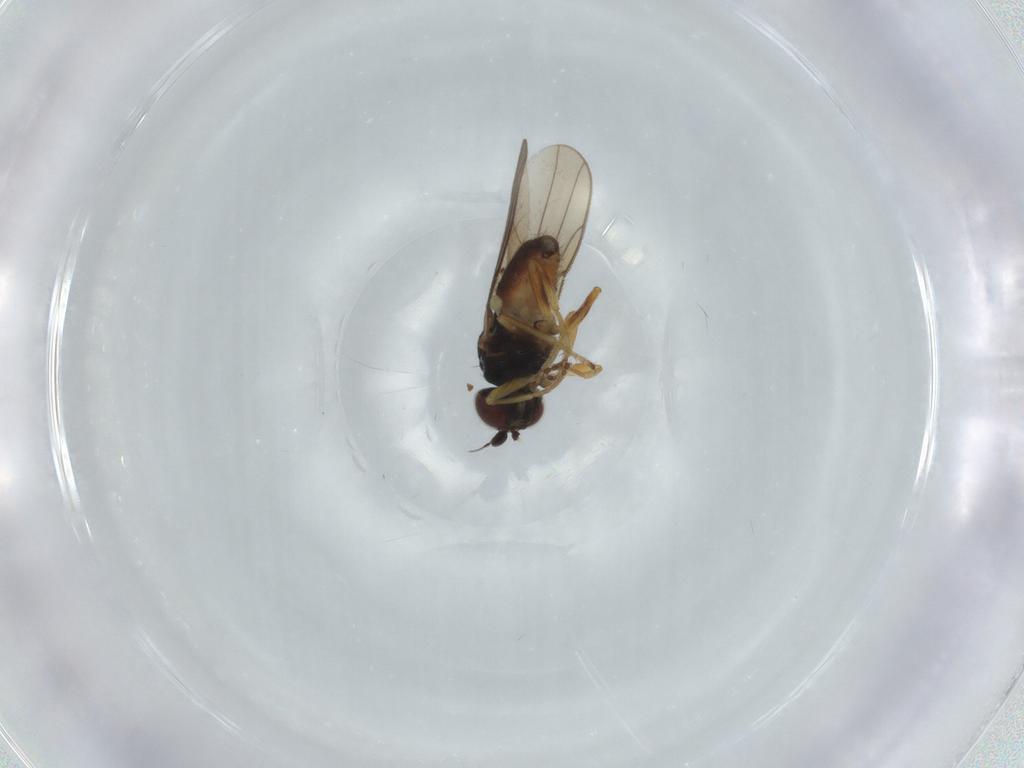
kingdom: Animalia
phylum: Arthropoda
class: Insecta
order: Diptera
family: Chloropidae
